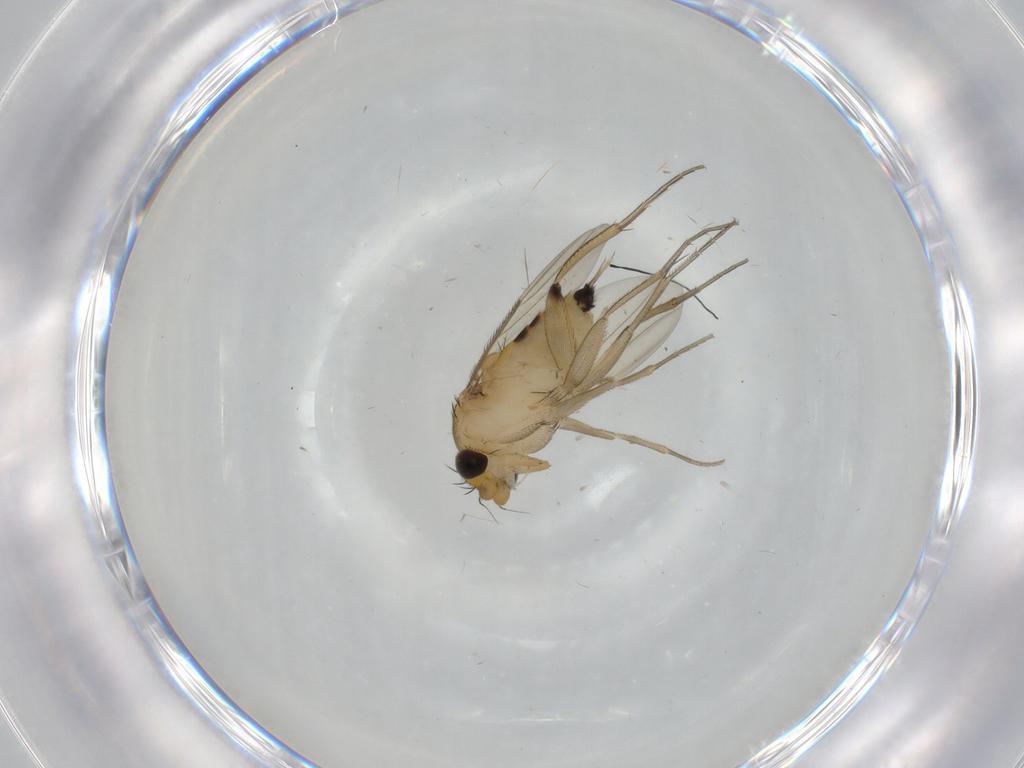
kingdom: Animalia
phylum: Arthropoda
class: Insecta
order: Diptera
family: Phoridae
